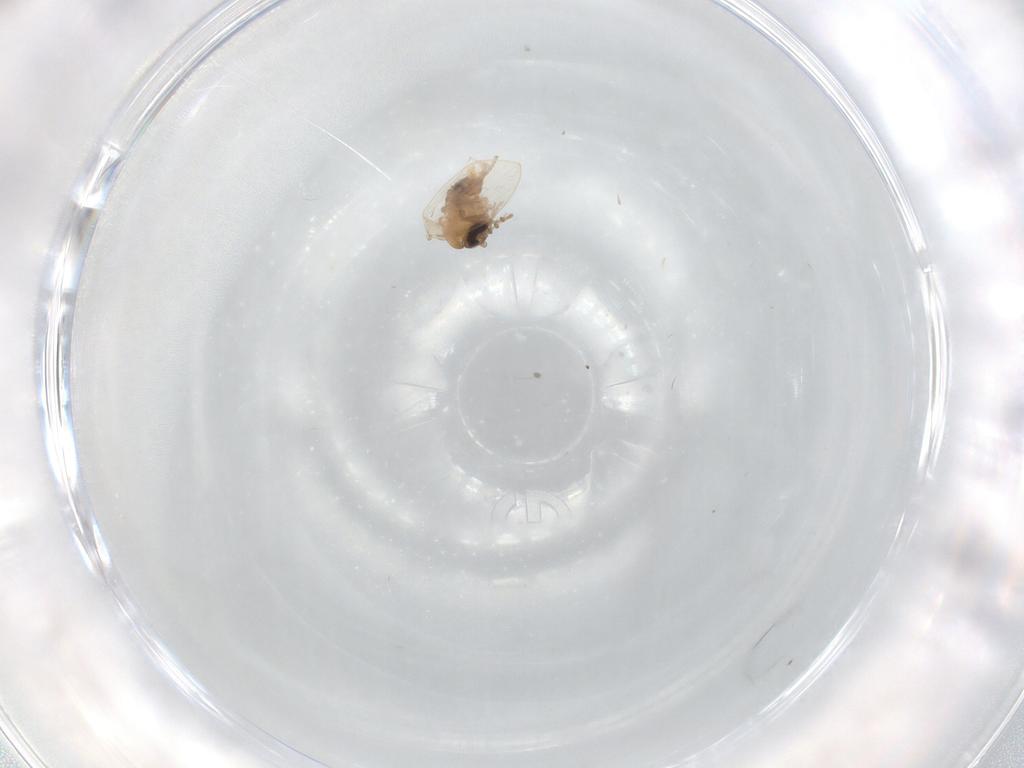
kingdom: Animalia
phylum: Arthropoda
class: Insecta
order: Diptera
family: Psychodidae
